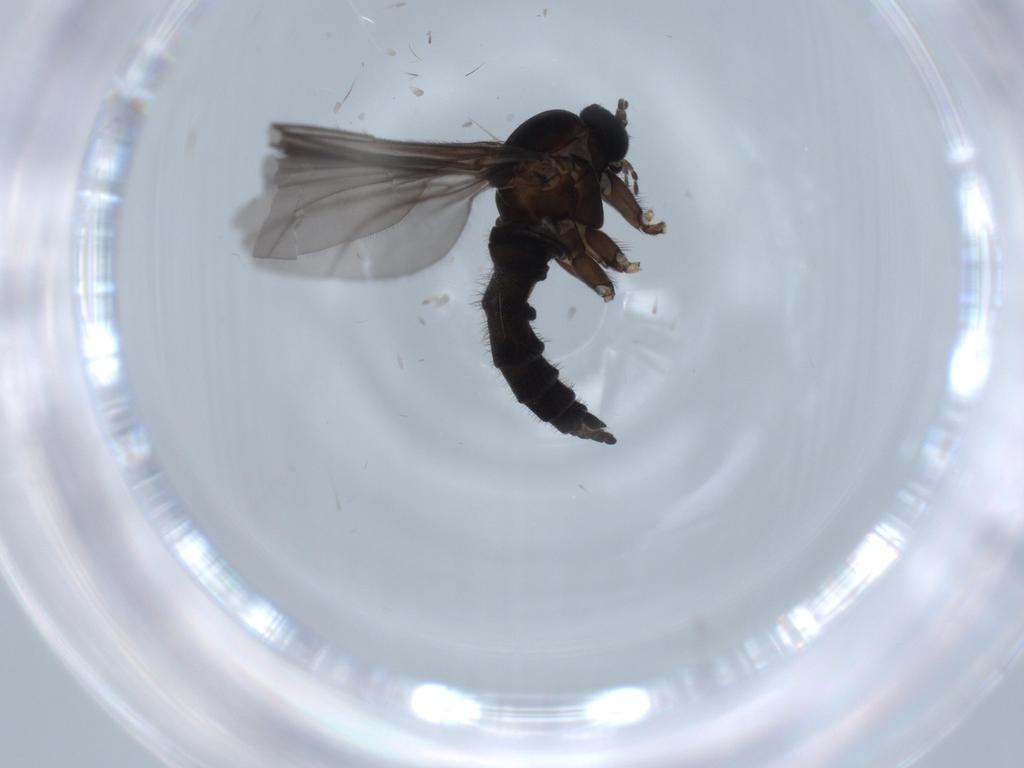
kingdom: Animalia
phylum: Arthropoda
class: Insecta
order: Diptera
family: Sciaridae
